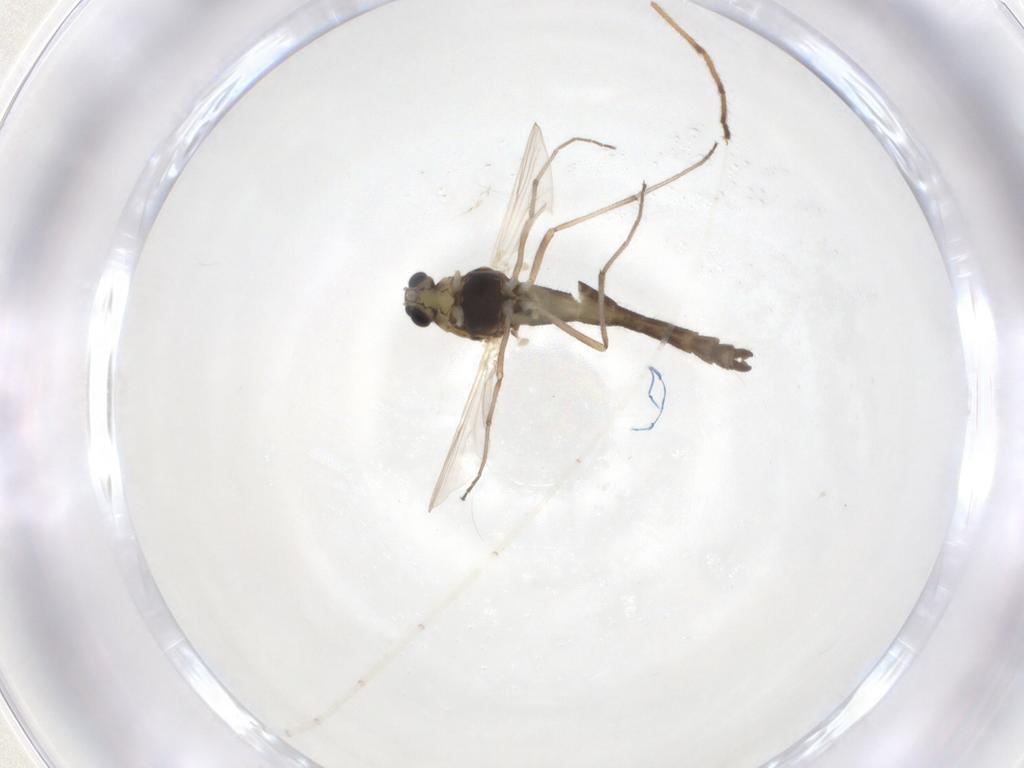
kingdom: Animalia
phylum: Arthropoda
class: Insecta
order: Diptera
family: Chironomidae
